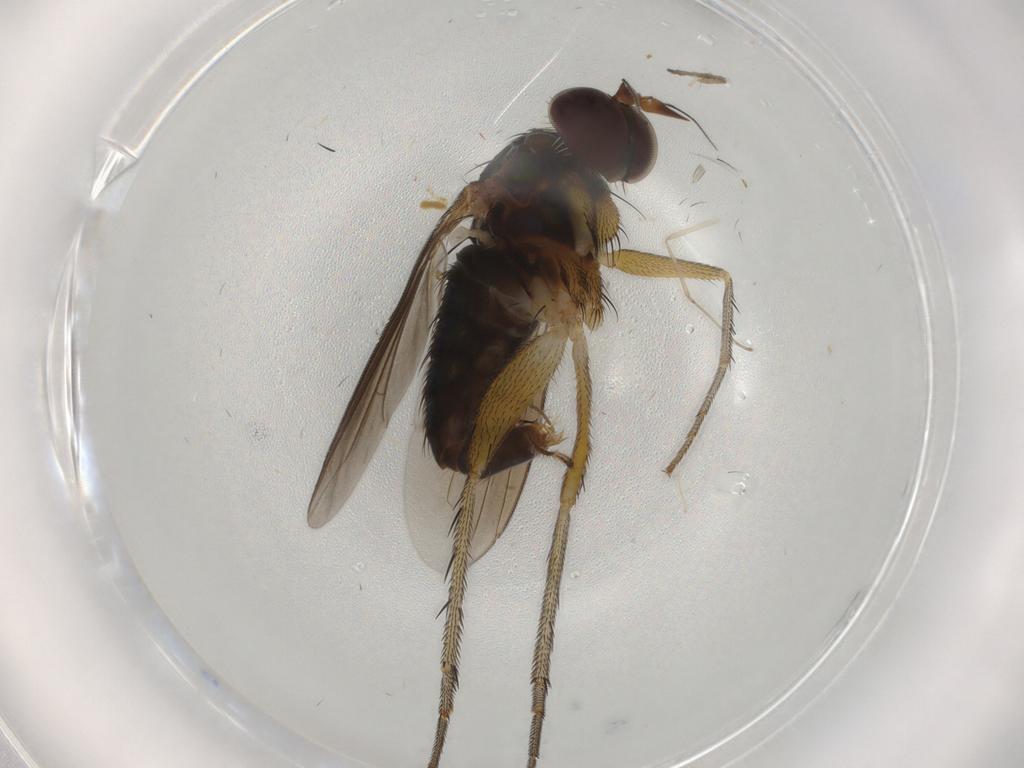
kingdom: Animalia
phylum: Arthropoda
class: Insecta
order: Diptera
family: Dolichopodidae
